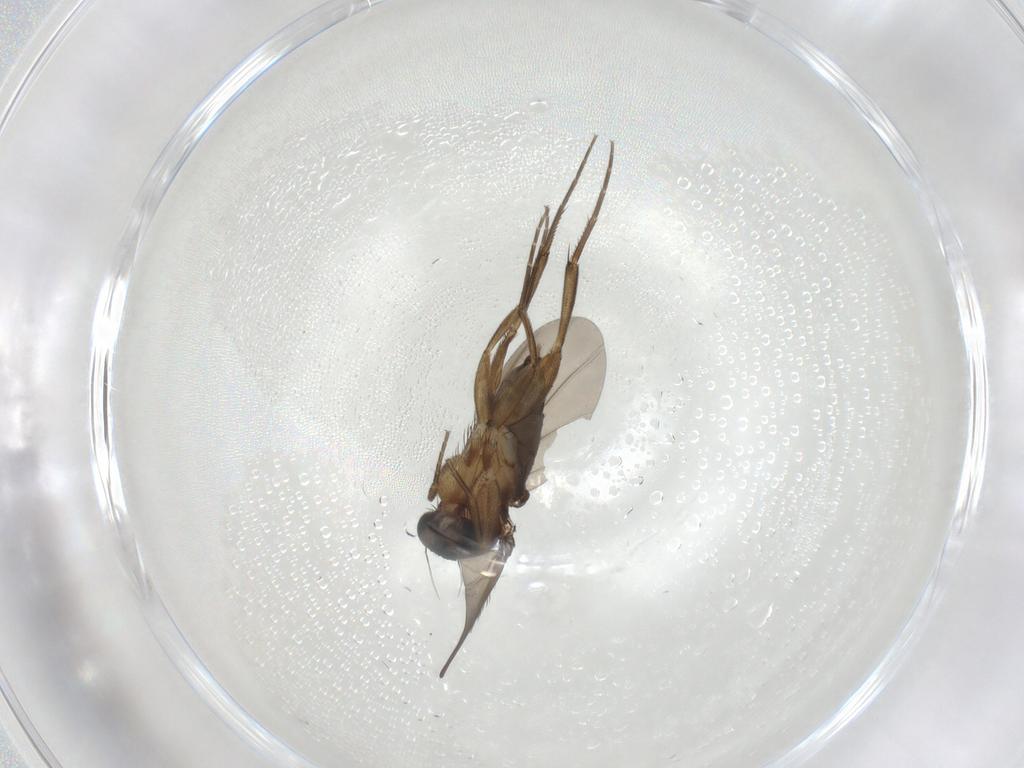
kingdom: Animalia
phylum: Arthropoda
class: Insecta
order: Diptera
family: Phoridae
